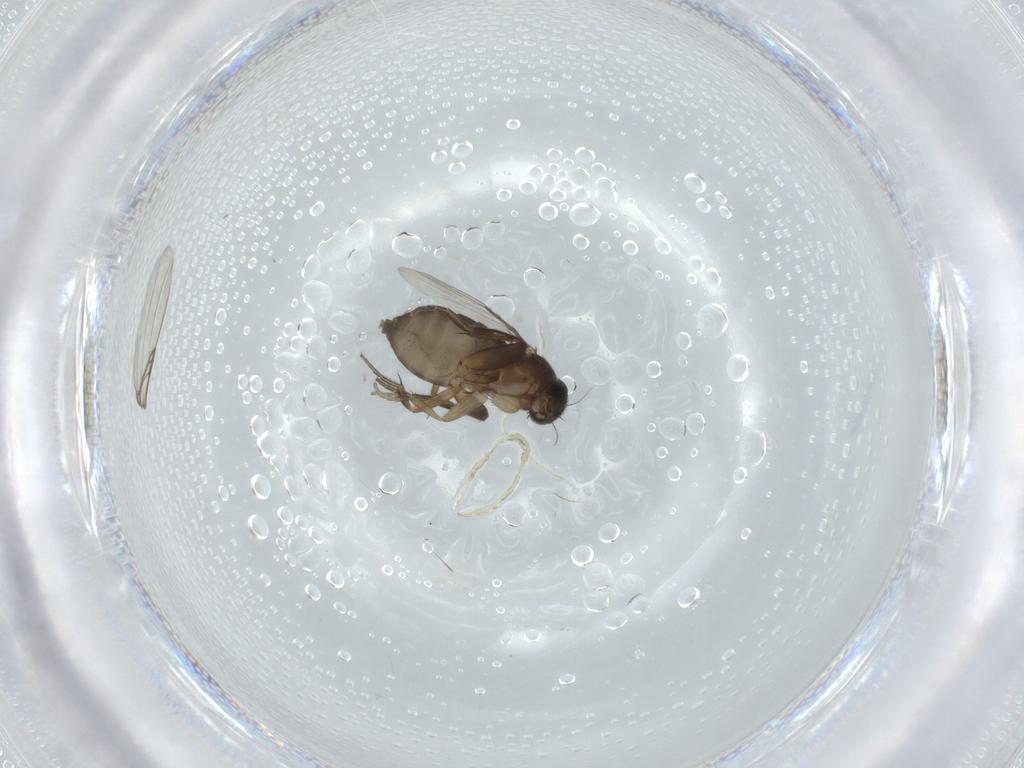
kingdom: Animalia
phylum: Arthropoda
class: Insecta
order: Diptera
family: Phoridae
